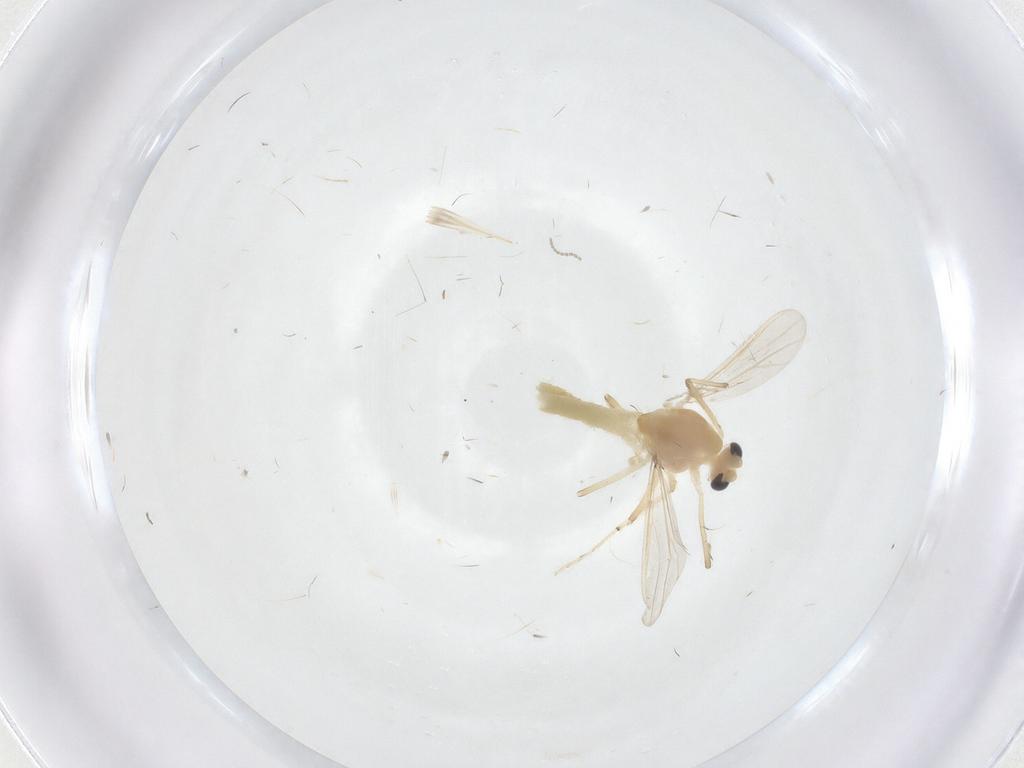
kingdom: Animalia
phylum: Arthropoda
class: Insecta
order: Diptera
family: Chironomidae
